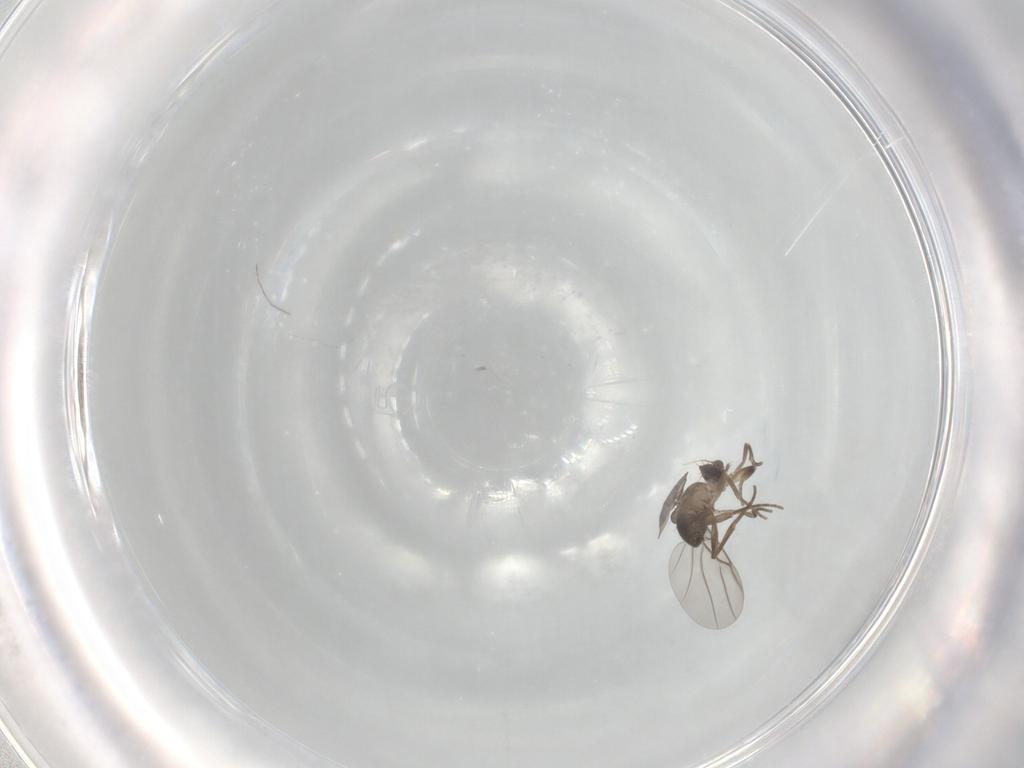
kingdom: Animalia
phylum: Arthropoda
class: Insecta
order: Diptera
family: Phoridae
